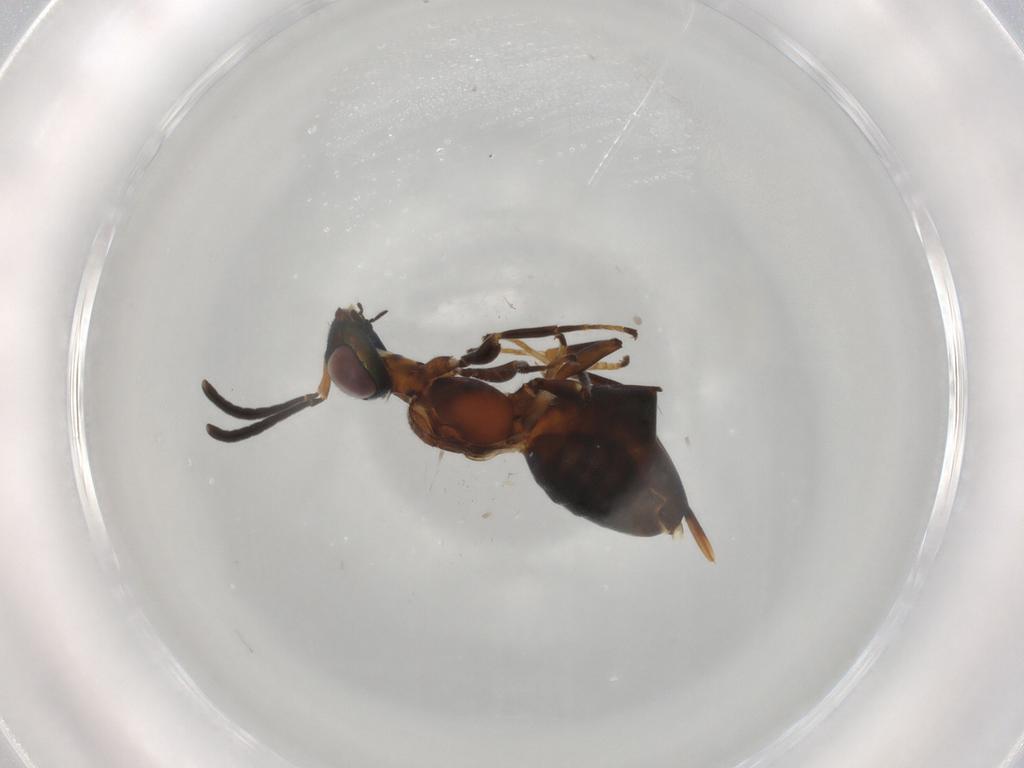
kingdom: Animalia
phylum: Arthropoda
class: Insecta
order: Hymenoptera
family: Eupelmidae
